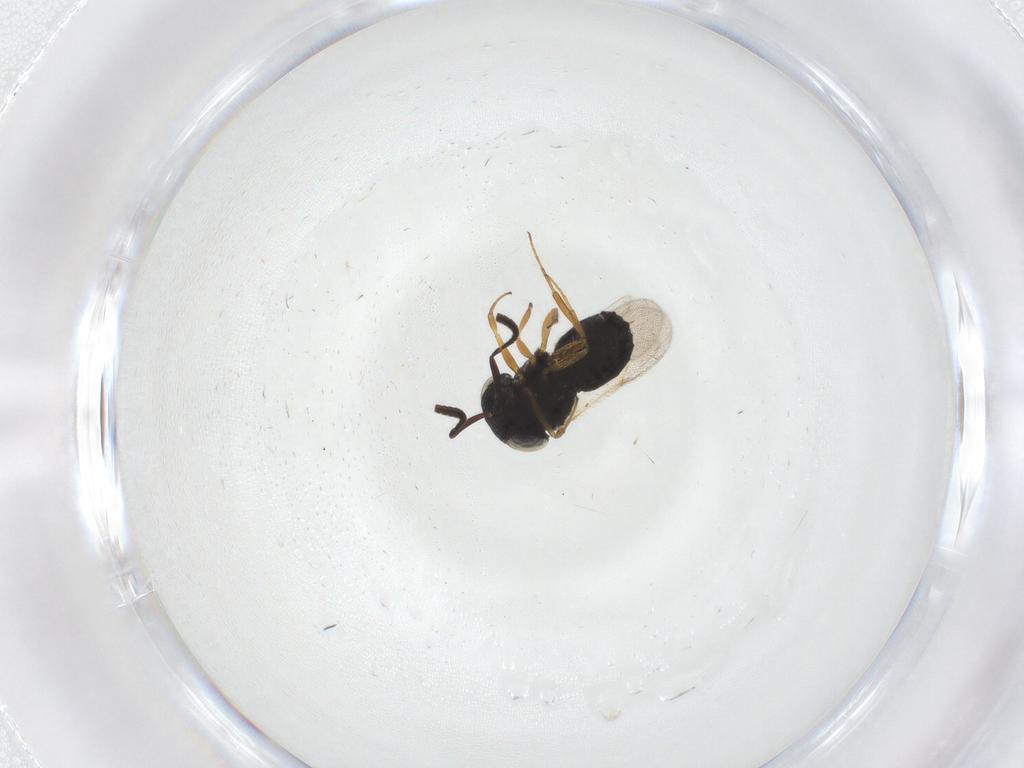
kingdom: Animalia
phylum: Arthropoda
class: Insecta
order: Hymenoptera
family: Scelionidae
